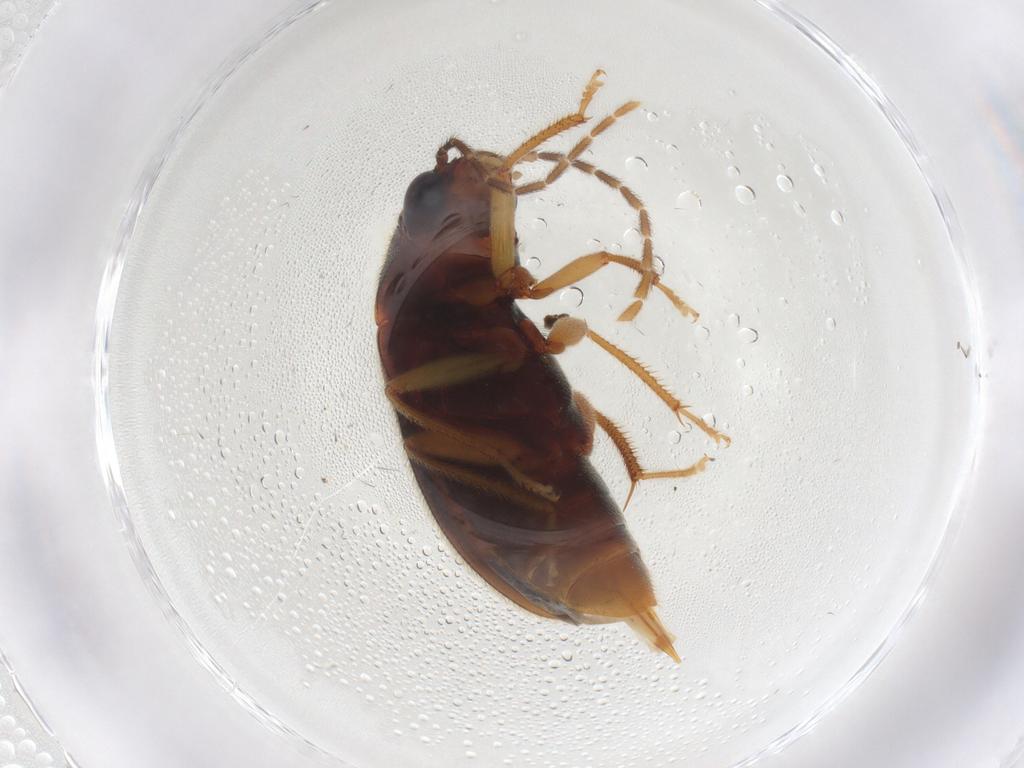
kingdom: Animalia
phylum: Arthropoda
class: Insecta
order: Coleoptera
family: Ptilodactylidae
